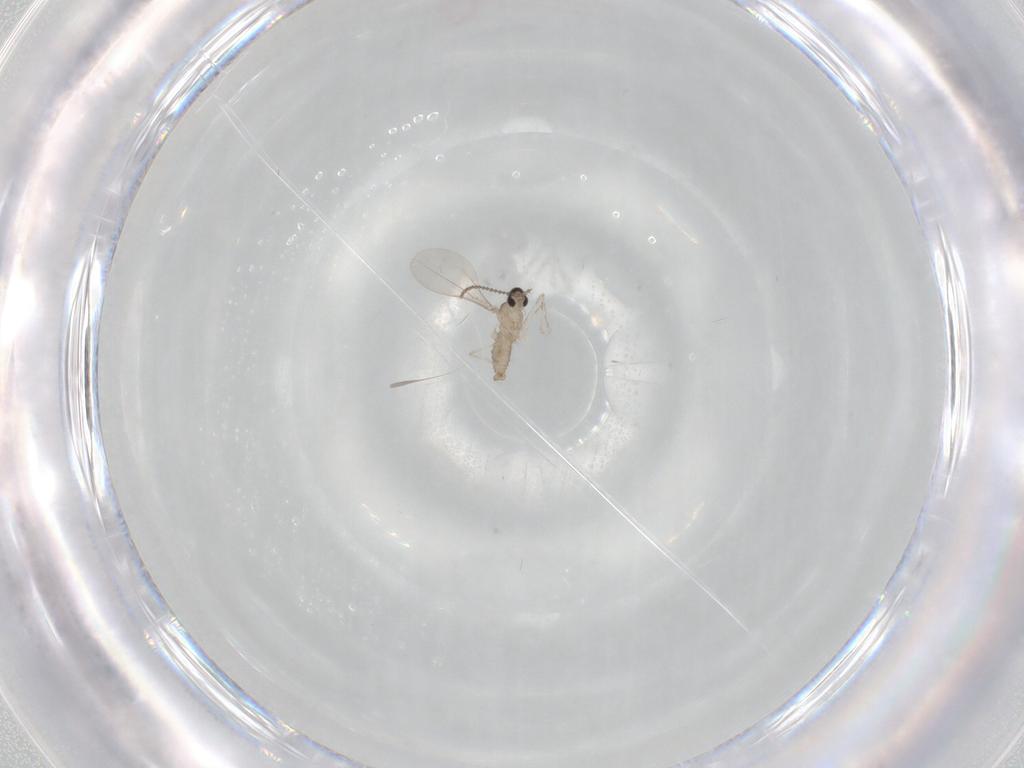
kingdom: Animalia
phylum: Arthropoda
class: Insecta
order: Diptera
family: Cecidomyiidae
